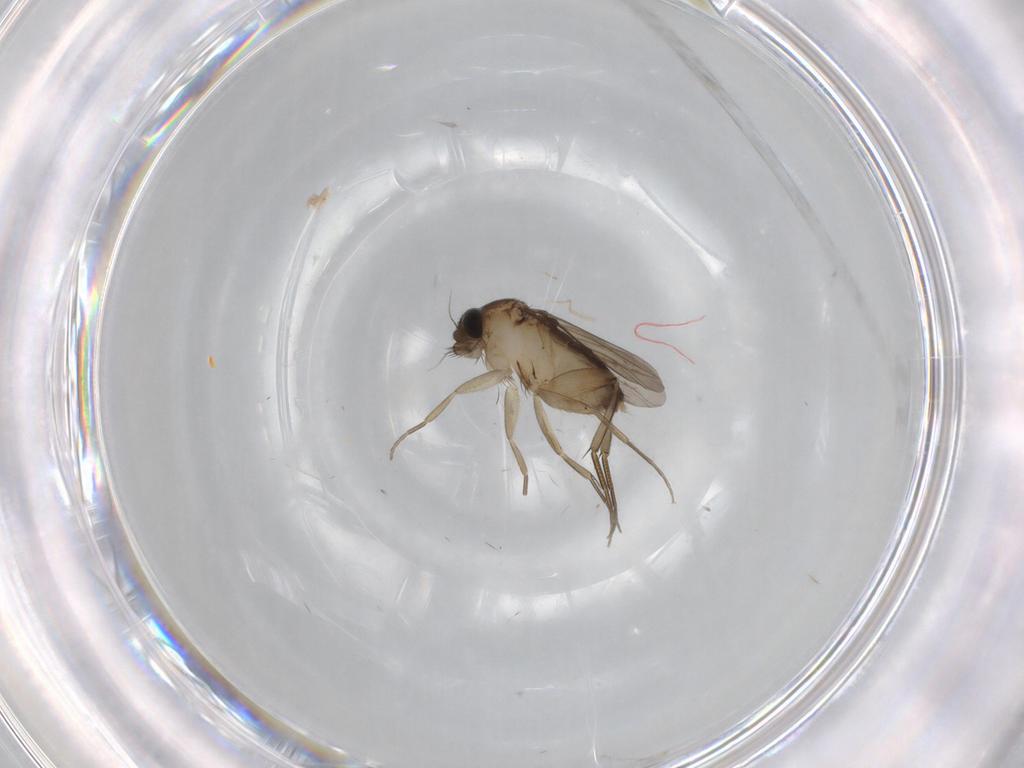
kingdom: Animalia
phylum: Arthropoda
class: Insecta
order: Diptera
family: Phoridae
